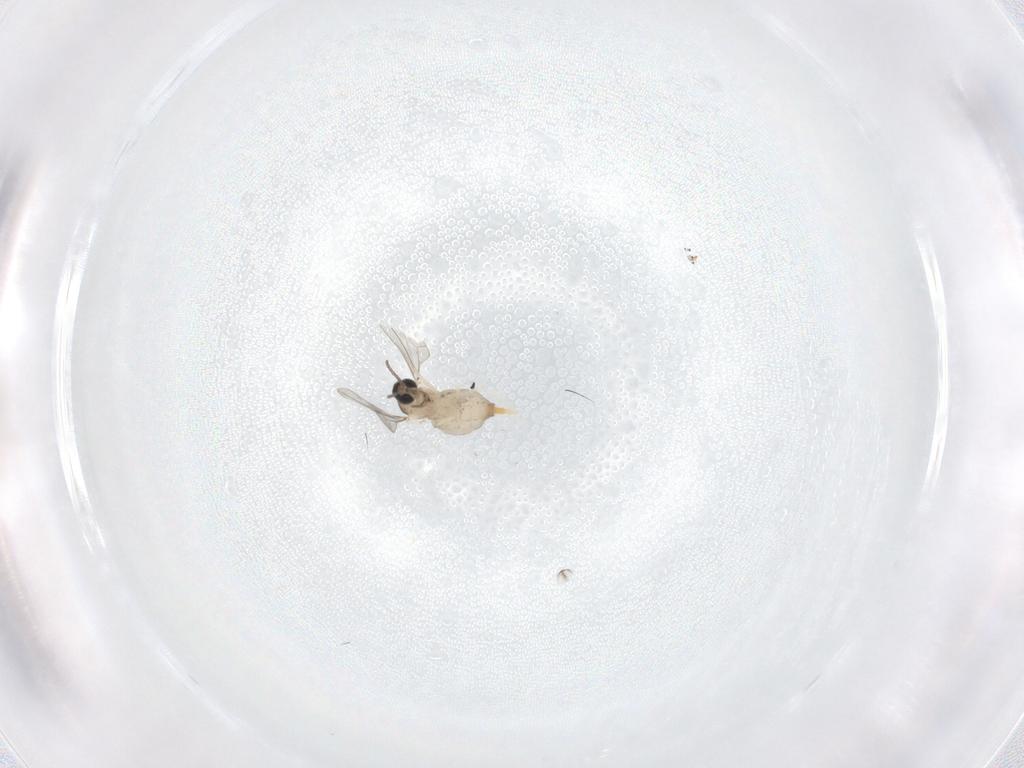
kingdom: Animalia
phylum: Arthropoda
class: Insecta
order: Diptera
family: Cecidomyiidae
